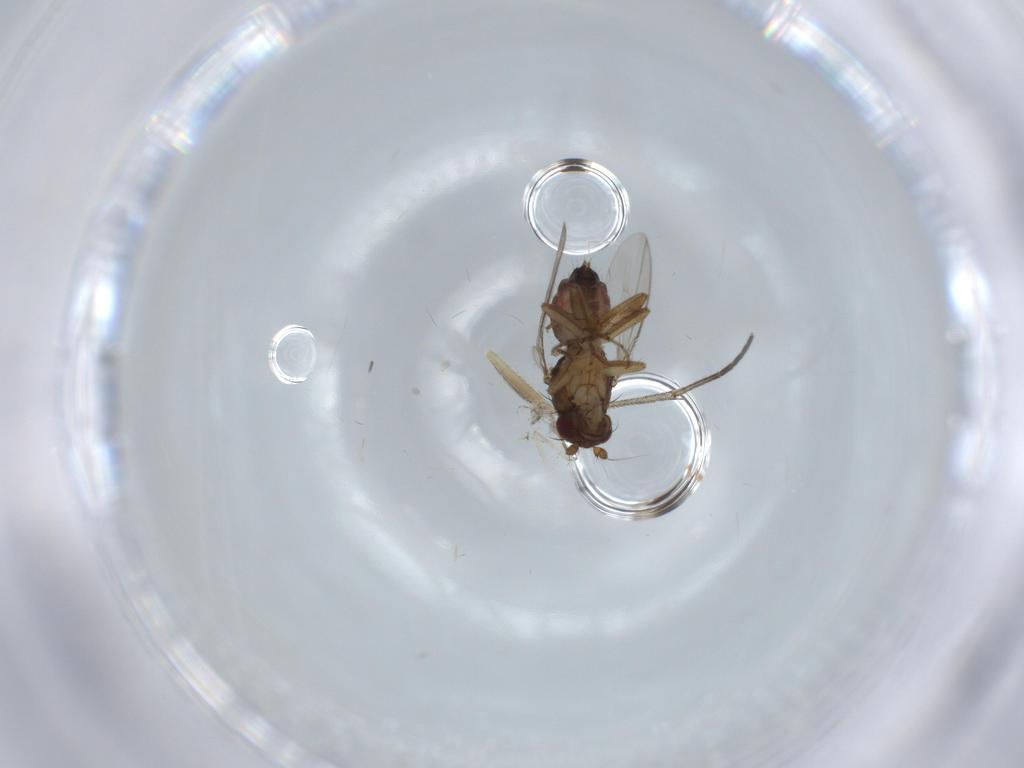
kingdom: Animalia
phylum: Arthropoda
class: Insecta
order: Diptera
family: Sphaeroceridae
